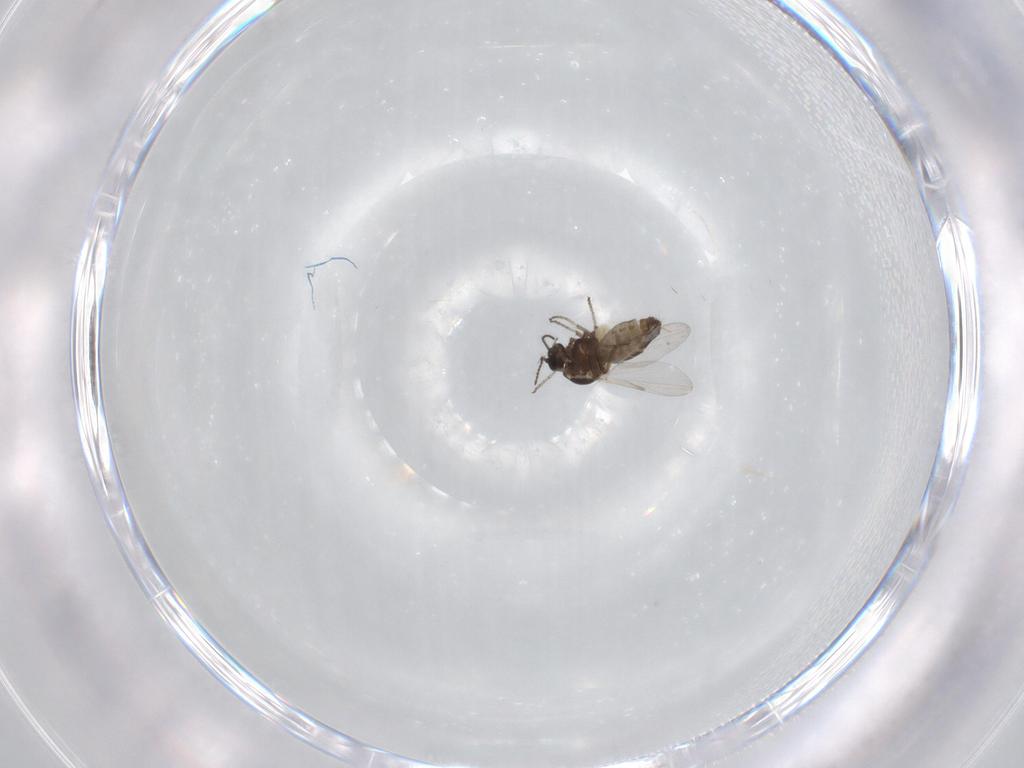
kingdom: Animalia
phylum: Arthropoda
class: Insecta
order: Diptera
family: Ceratopogonidae
